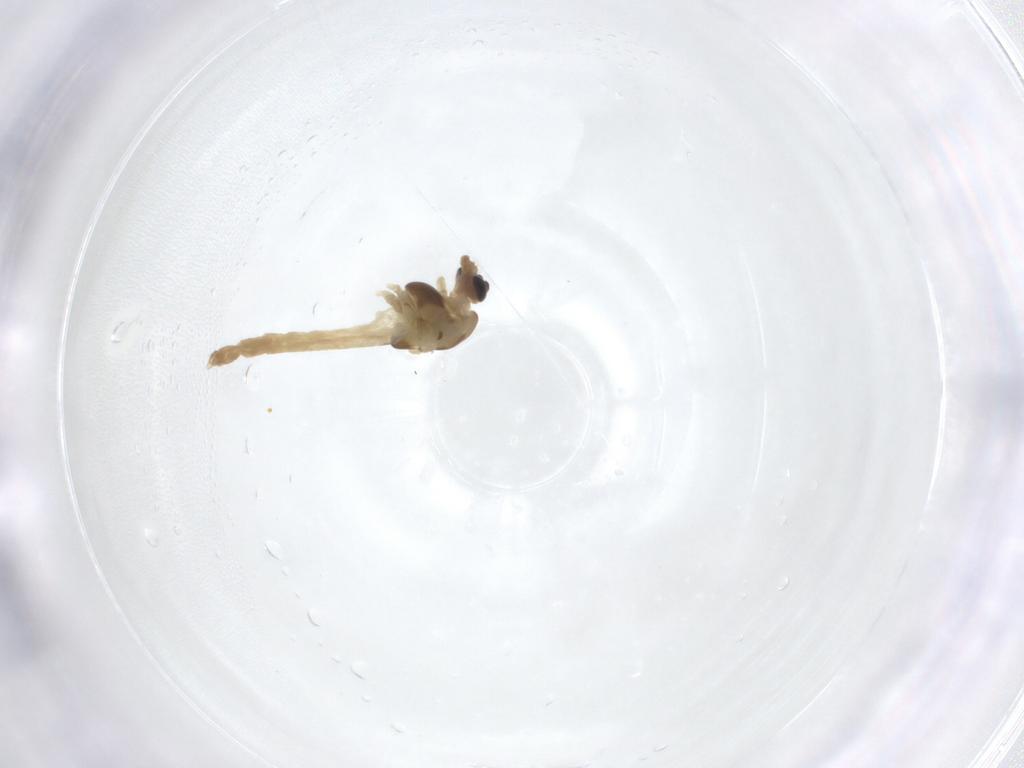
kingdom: Animalia
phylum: Arthropoda
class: Insecta
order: Diptera
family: Chironomidae
